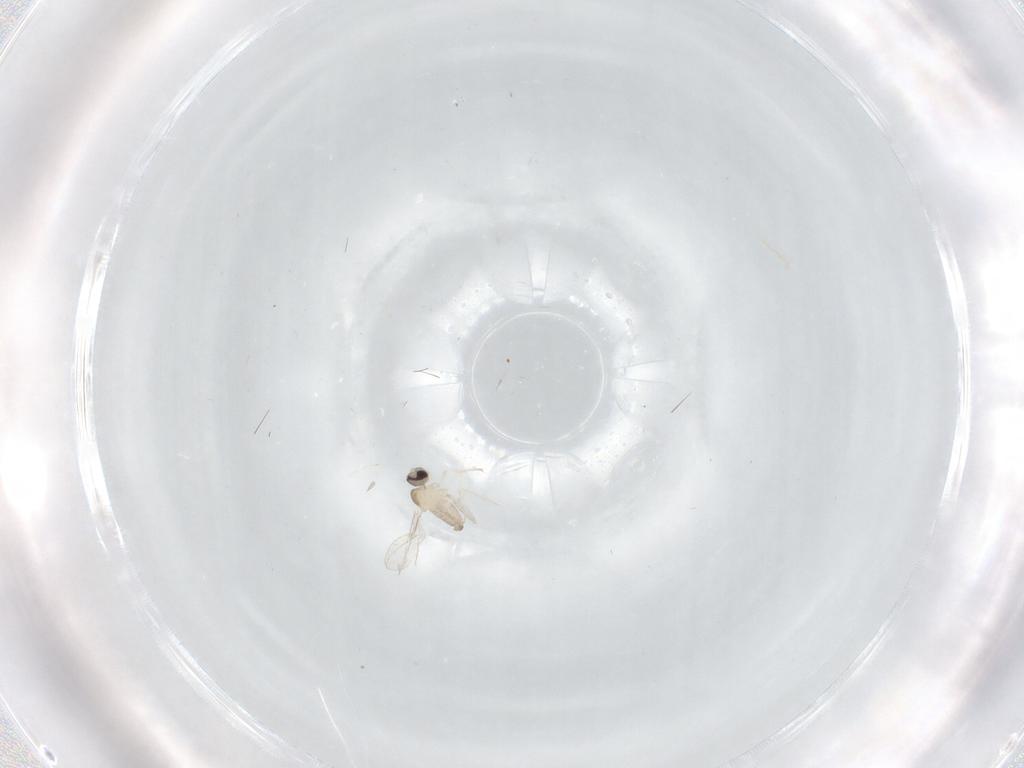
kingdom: Animalia
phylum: Arthropoda
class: Insecta
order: Diptera
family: Cecidomyiidae
